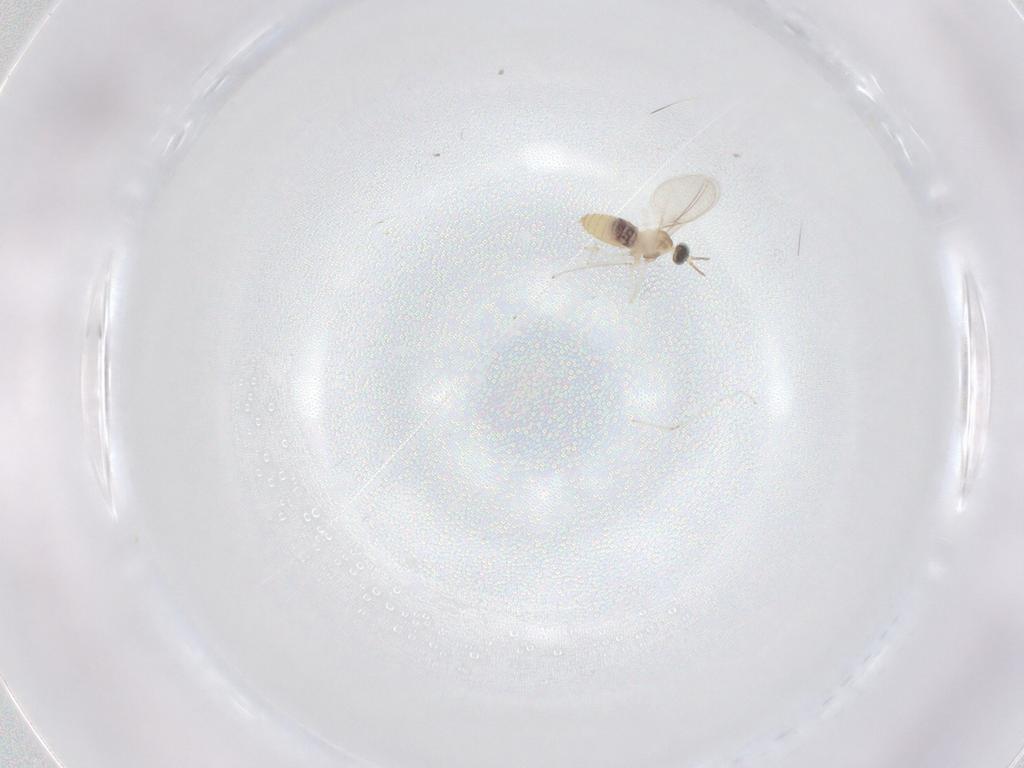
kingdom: Animalia
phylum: Arthropoda
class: Insecta
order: Diptera
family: Cecidomyiidae
